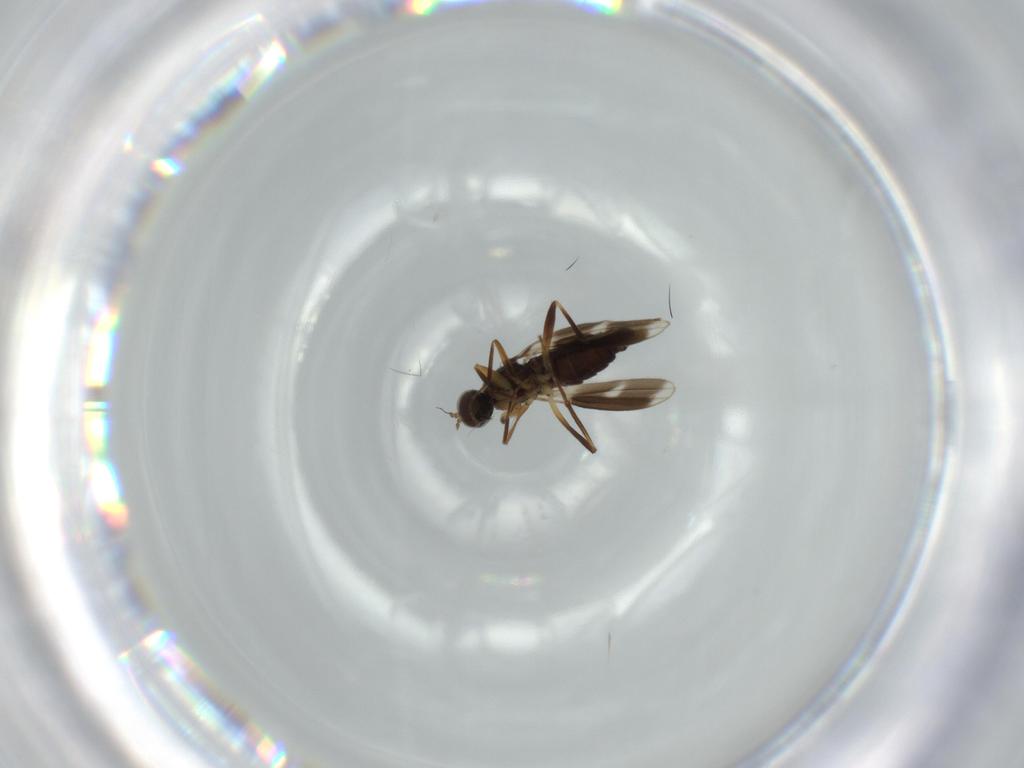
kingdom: Animalia
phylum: Arthropoda
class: Insecta
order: Diptera
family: Hybotidae
